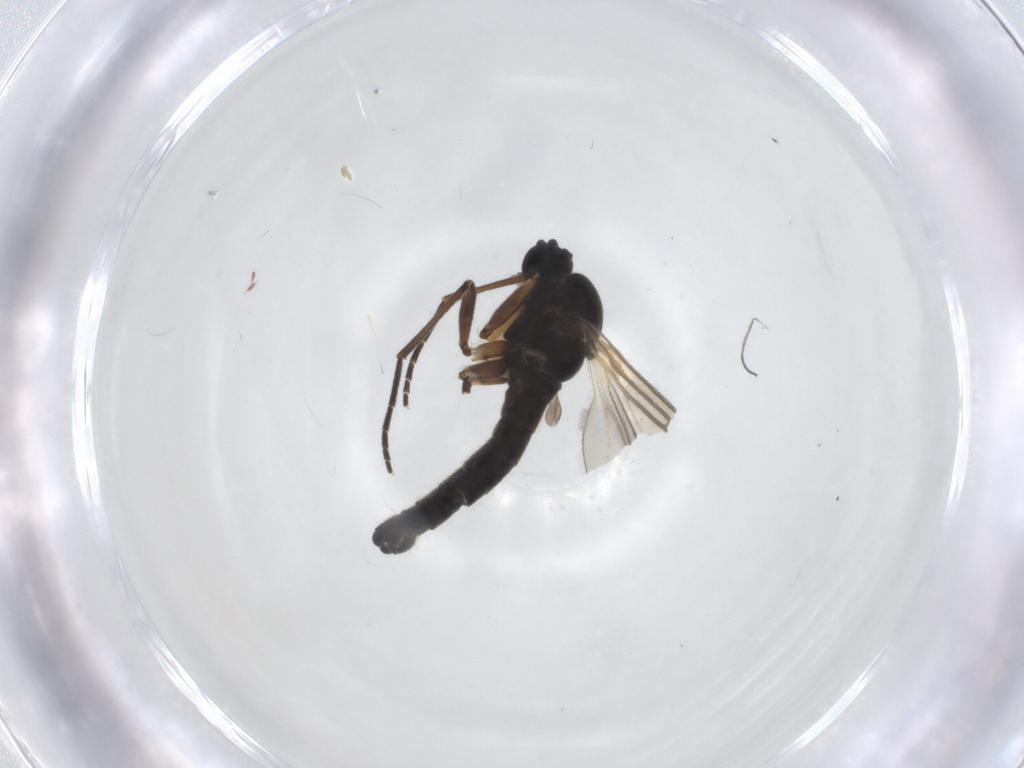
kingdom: Animalia
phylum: Arthropoda
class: Insecta
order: Diptera
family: Sciaridae
